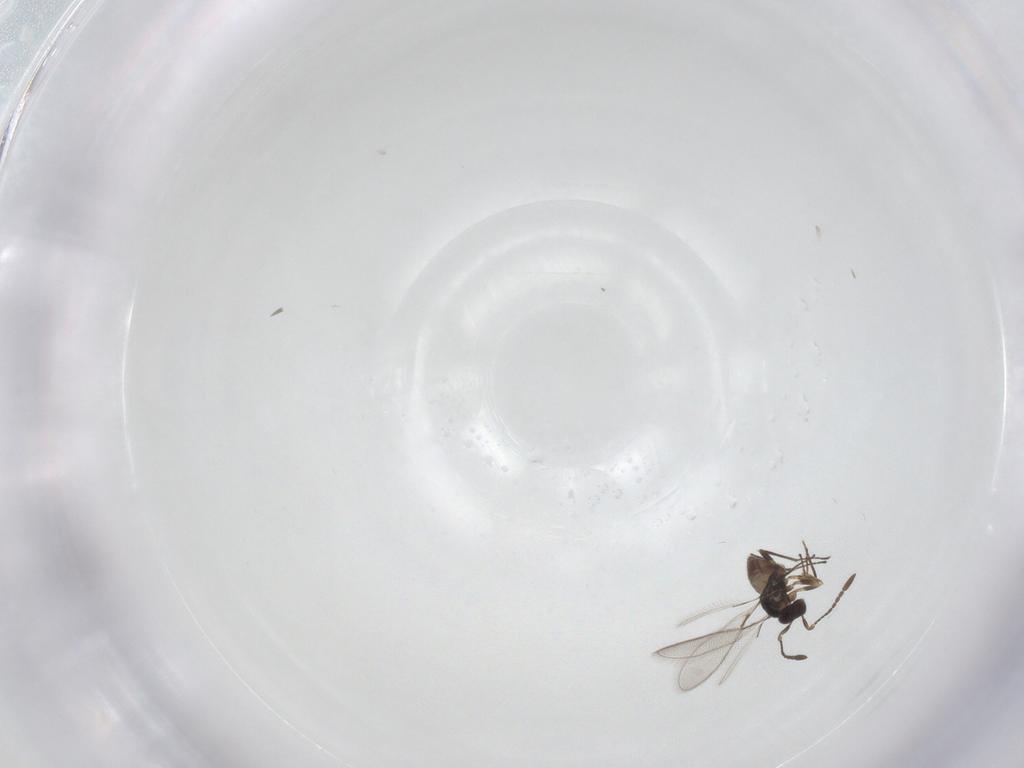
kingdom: Animalia
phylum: Arthropoda
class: Insecta
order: Hymenoptera
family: Mymaridae
